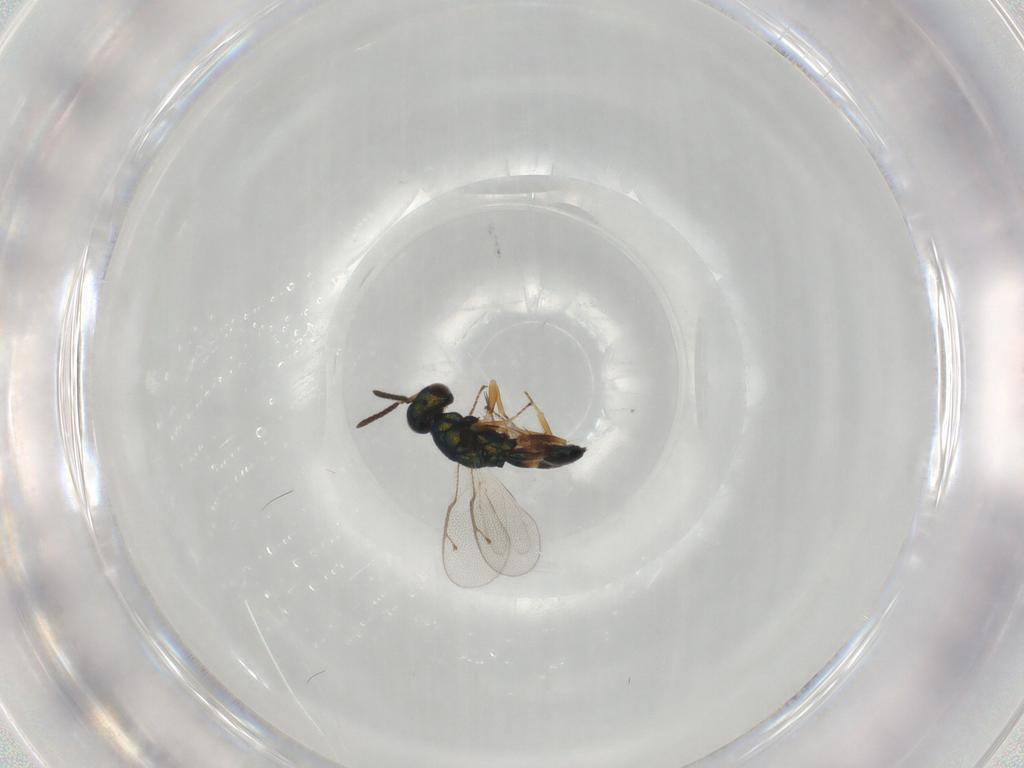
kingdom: Animalia
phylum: Arthropoda
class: Insecta
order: Hymenoptera
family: Pteromalidae
